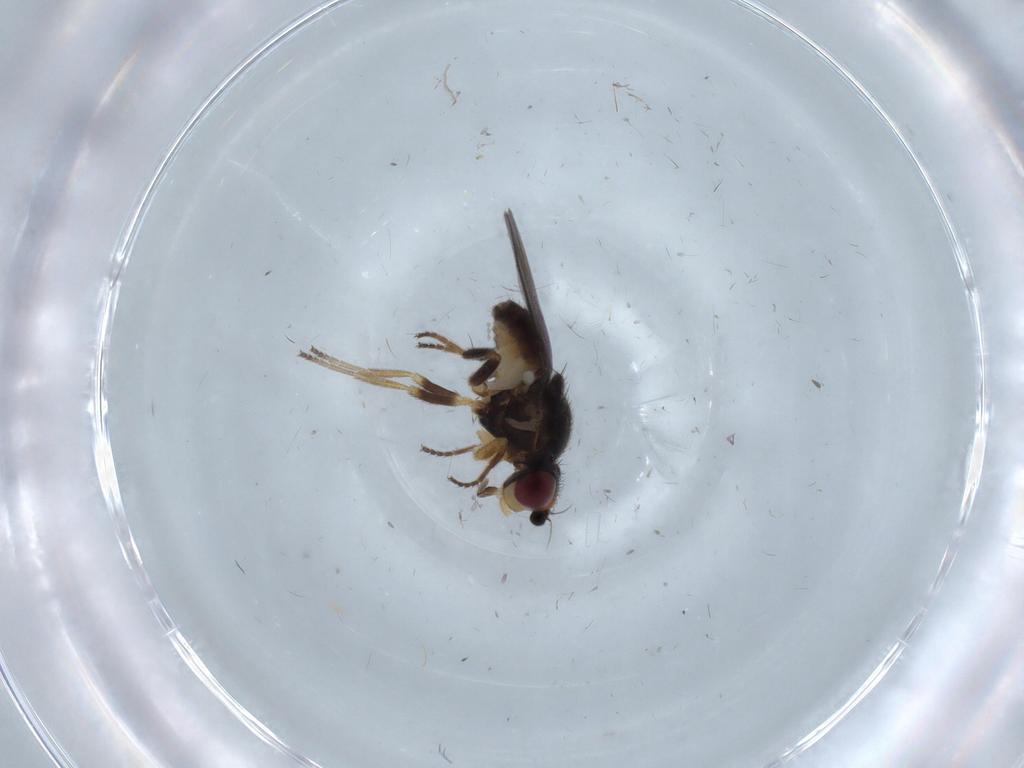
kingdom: Animalia
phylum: Arthropoda
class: Insecta
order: Diptera
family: Chloropidae
